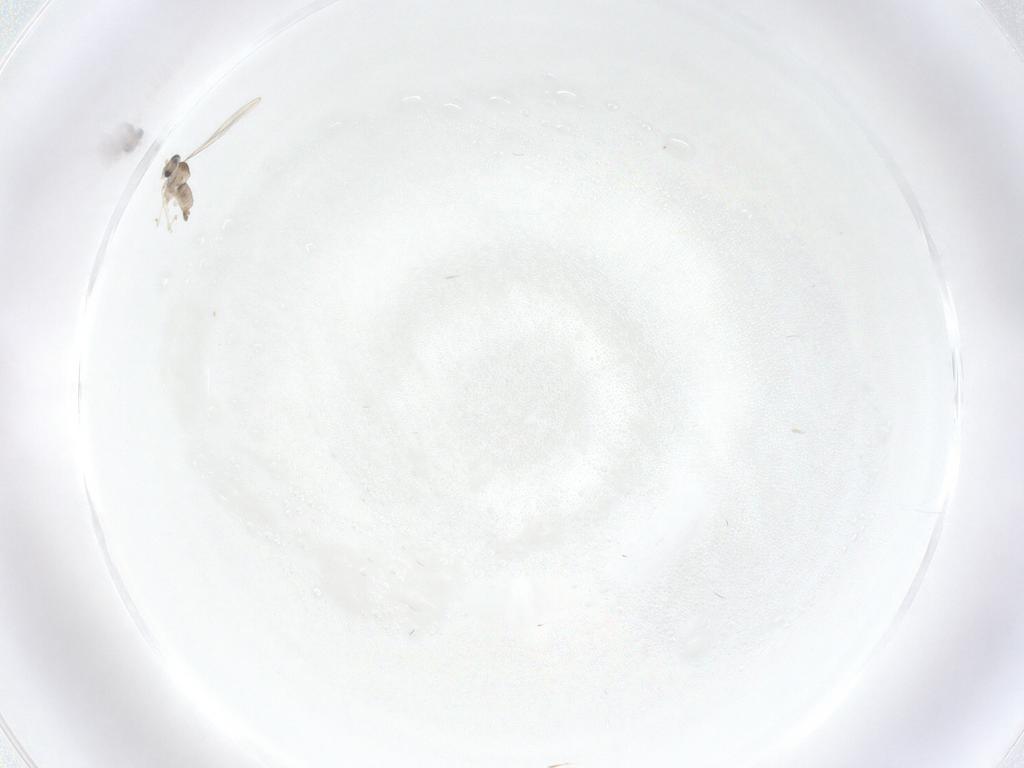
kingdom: Animalia
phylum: Arthropoda
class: Insecta
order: Diptera
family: Cecidomyiidae
